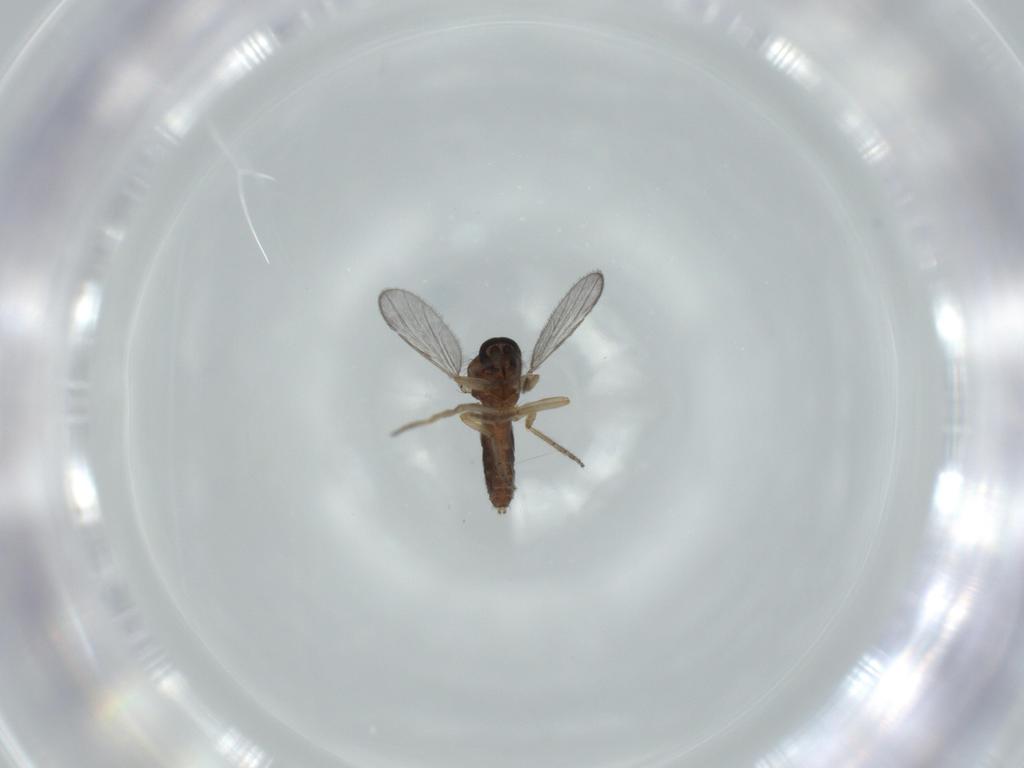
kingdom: Animalia
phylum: Arthropoda
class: Insecta
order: Diptera
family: Ceratopogonidae
